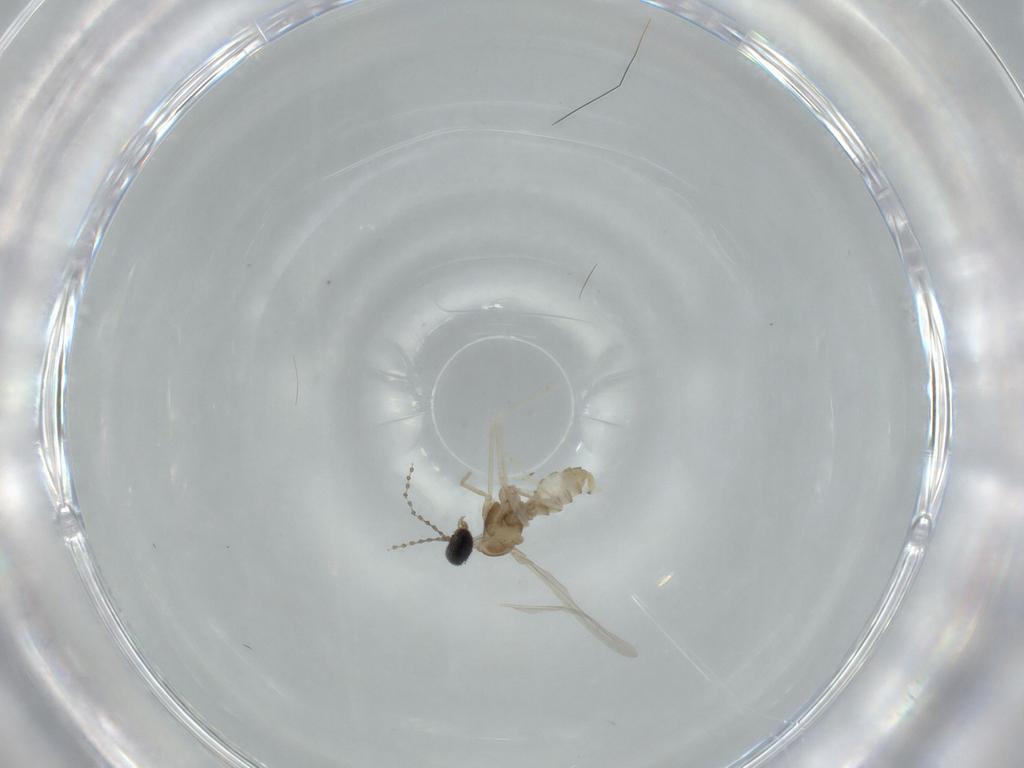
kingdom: Animalia
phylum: Arthropoda
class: Insecta
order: Diptera
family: Cecidomyiidae
